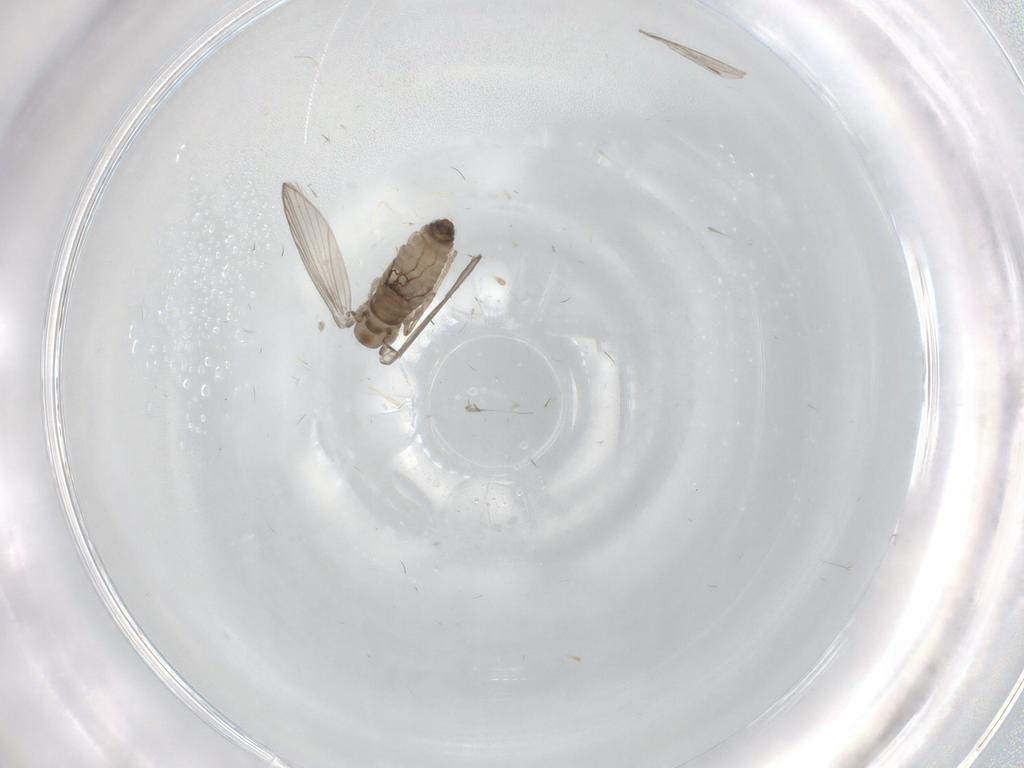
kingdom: Animalia
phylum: Arthropoda
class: Insecta
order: Diptera
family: Psychodidae
